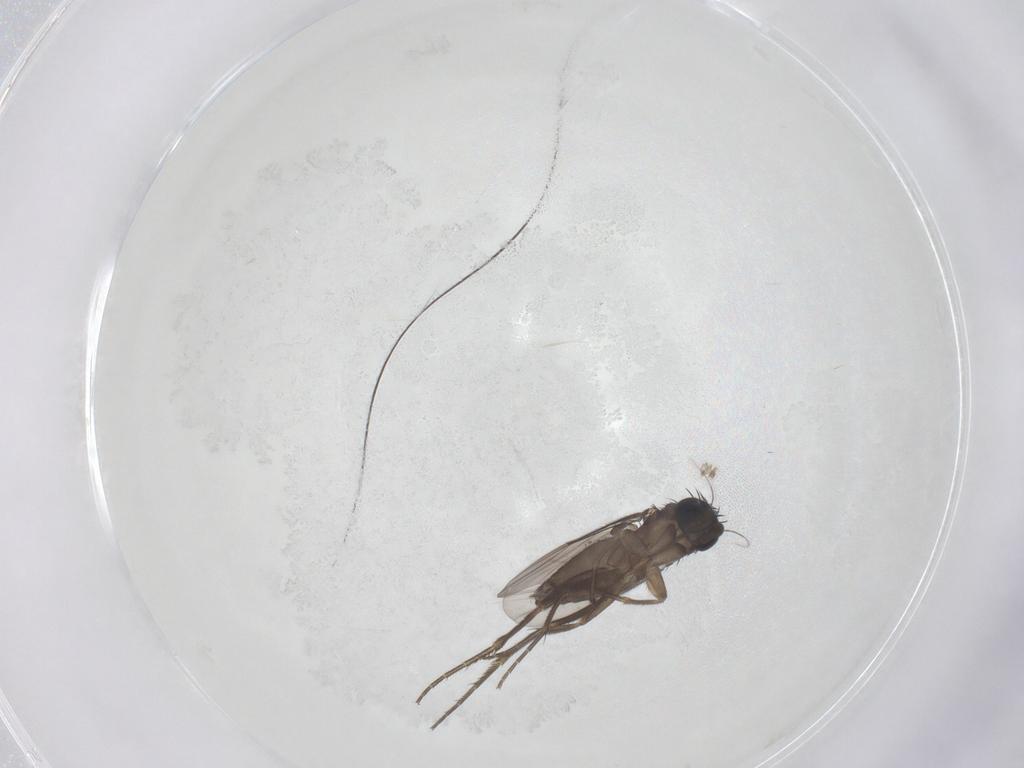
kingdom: Animalia
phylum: Arthropoda
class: Insecta
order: Diptera
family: Phoridae
